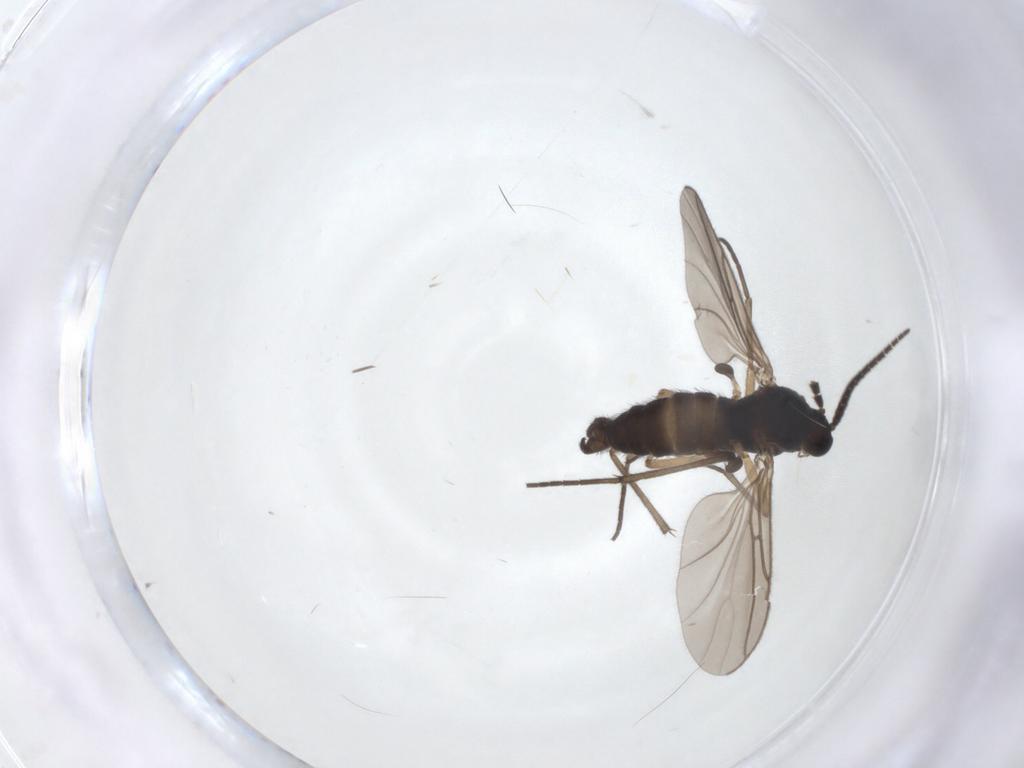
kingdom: Animalia
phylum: Arthropoda
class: Insecta
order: Diptera
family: Sciaridae
